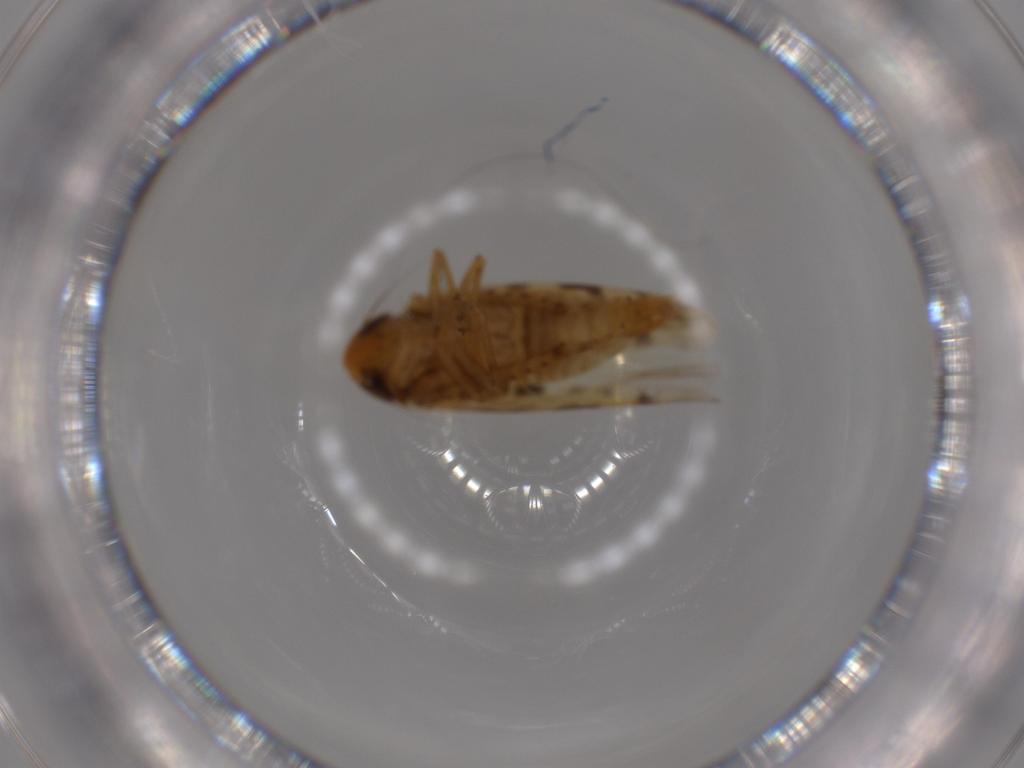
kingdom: Animalia
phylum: Arthropoda
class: Insecta
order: Hemiptera
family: Cicadellidae
